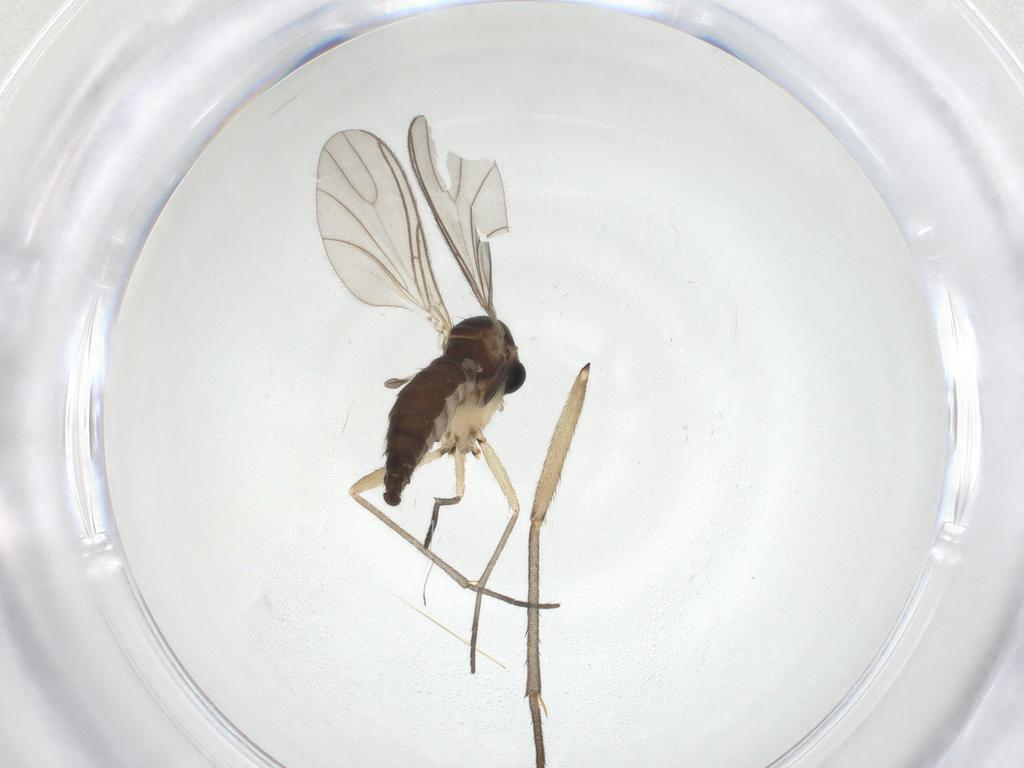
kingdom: Animalia
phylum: Arthropoda
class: Insecta
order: Diptera
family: Sciaridae
